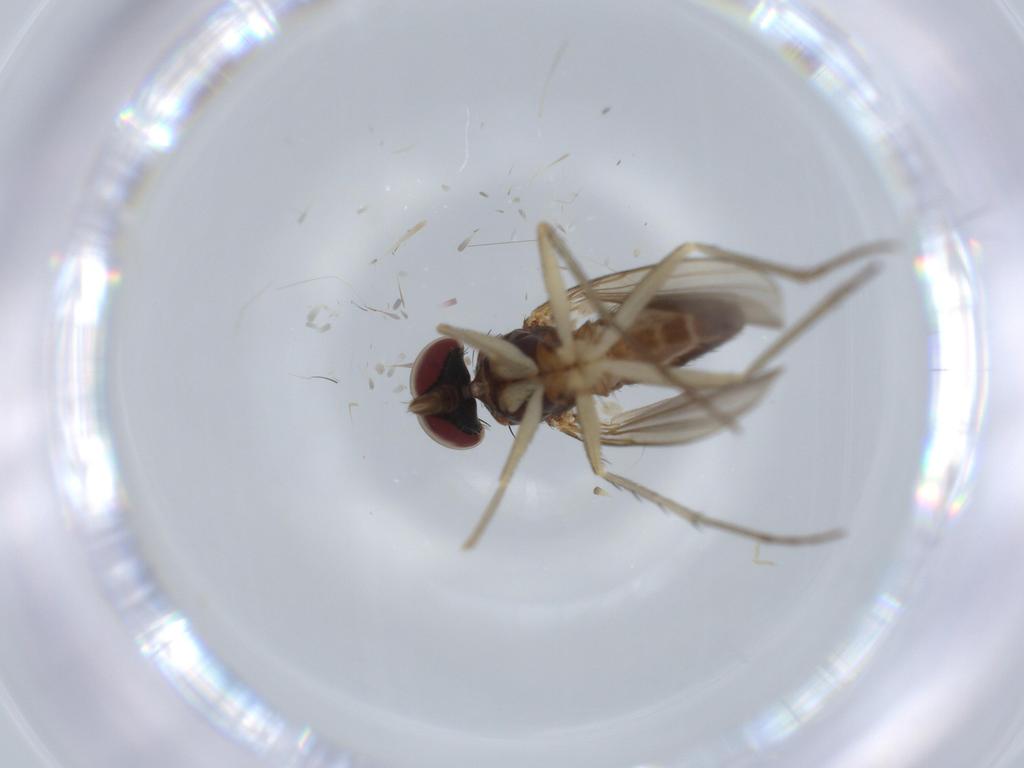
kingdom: Animalia
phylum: Arthropoda
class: Insecta
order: Diptera
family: Dolichopodidae
